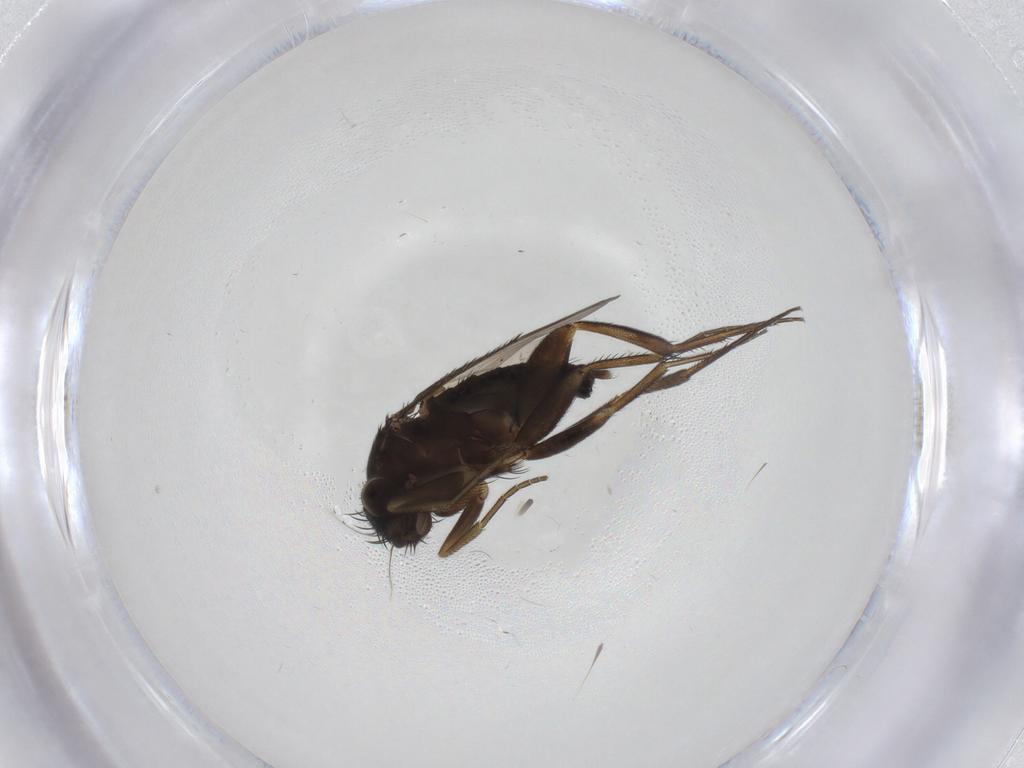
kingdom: Animalia
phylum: Arthropoda
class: Insecta
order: Diptera
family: Phoridae
